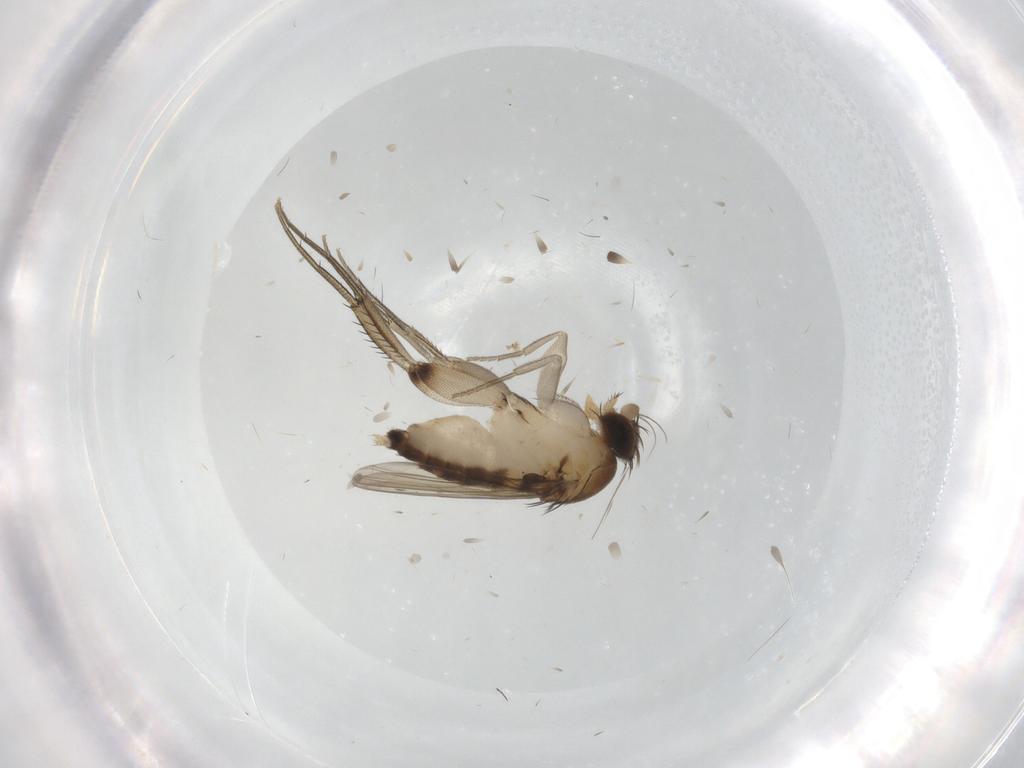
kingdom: Animalia
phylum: Arthropoda
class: Insecta
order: Diptera
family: Phoridae
